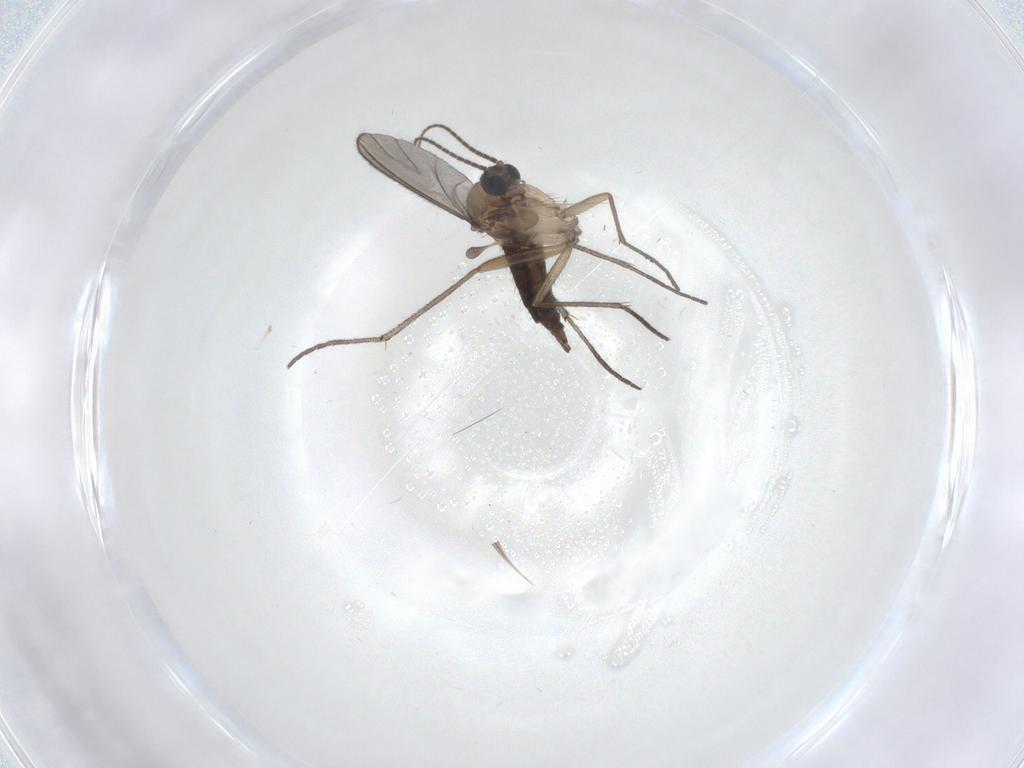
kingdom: Animalia
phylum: Arthropoda
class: Insecta
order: Diptera
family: Sciaridae
